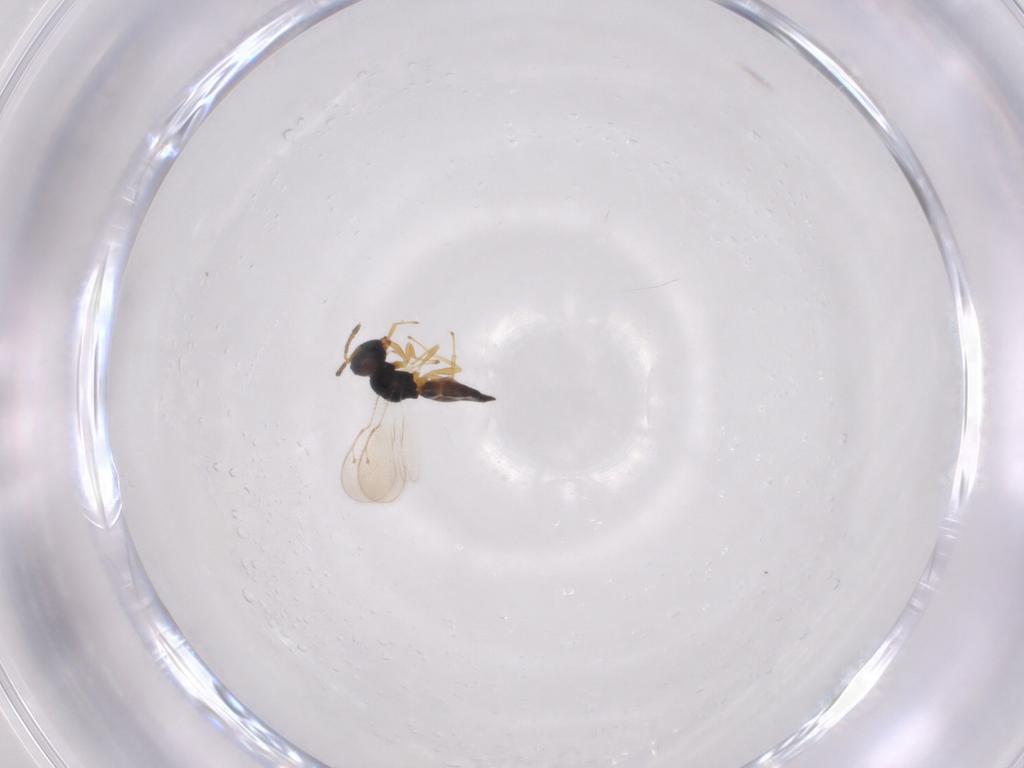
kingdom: Animalia
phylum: Arthropoda
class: Insecta
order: Hymenoptera
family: Pteromalidae
